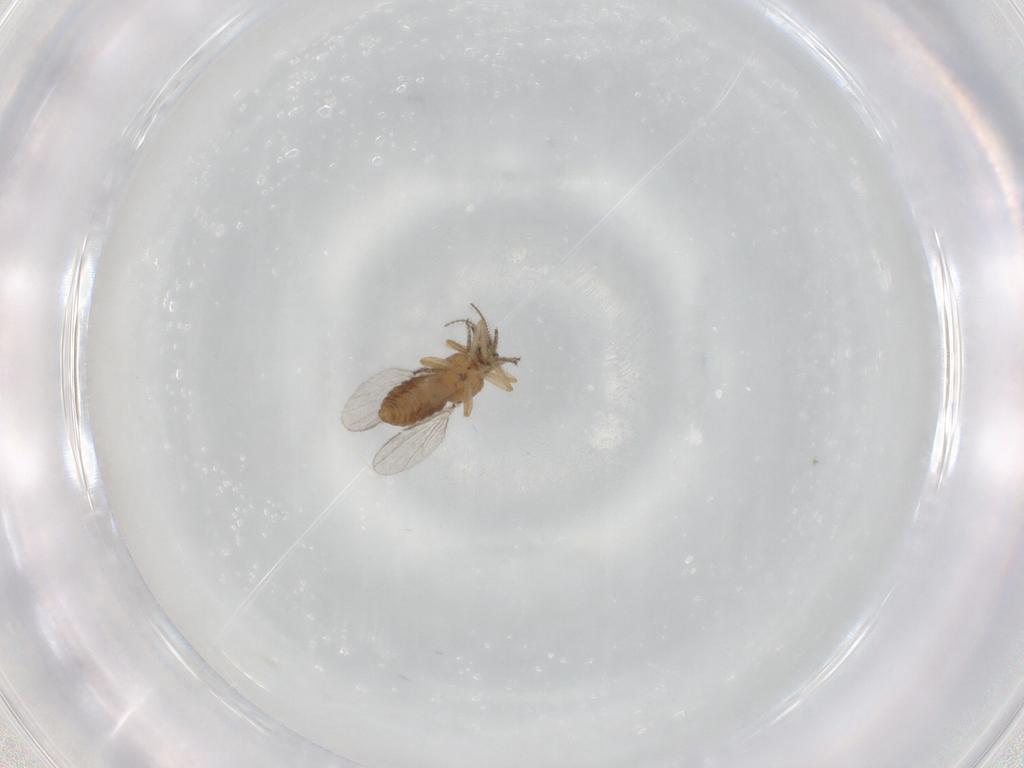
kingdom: Animalia
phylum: Arthropoda
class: Insecta
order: Diptera
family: Ceratopogonidae
